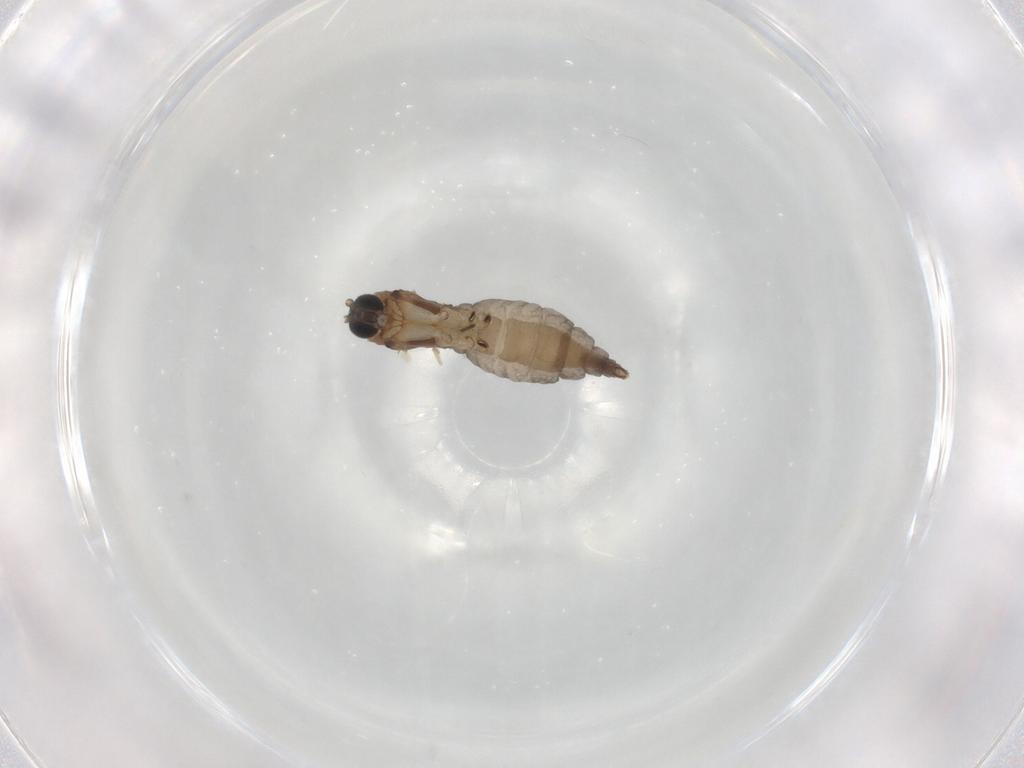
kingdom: Animalia
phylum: Arthropoda
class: Insecta
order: Diptera
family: Sciaridae
